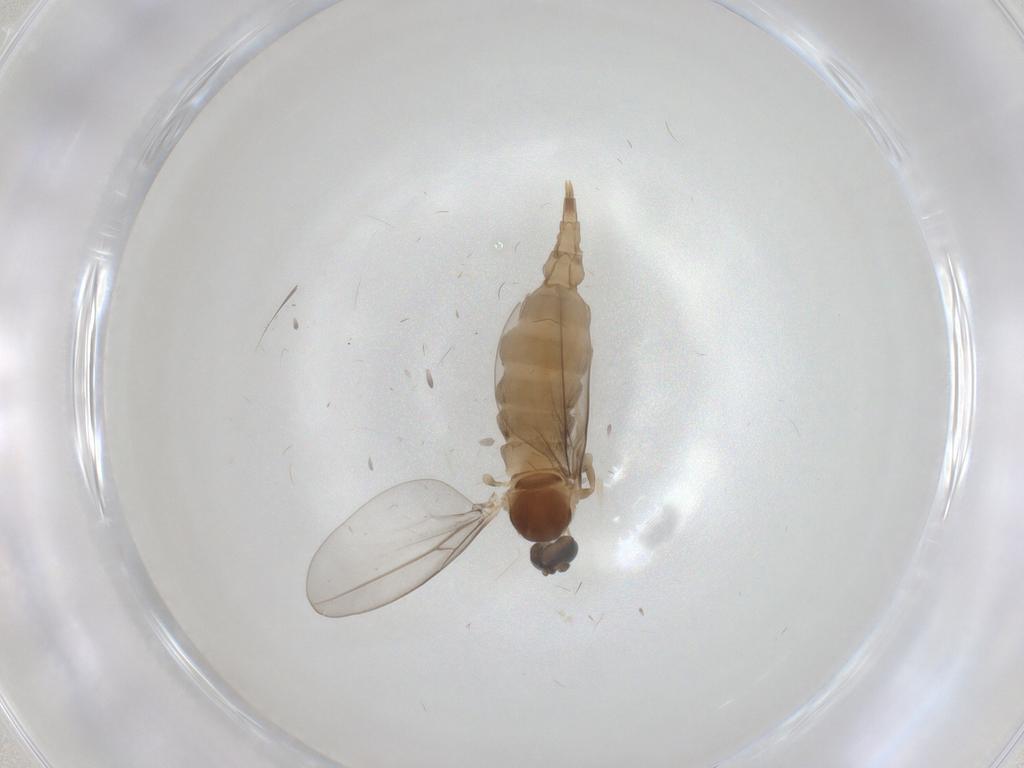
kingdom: Animalia
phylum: Arthropoda
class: Insecta
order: Diptera
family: Cecidomyiidae
